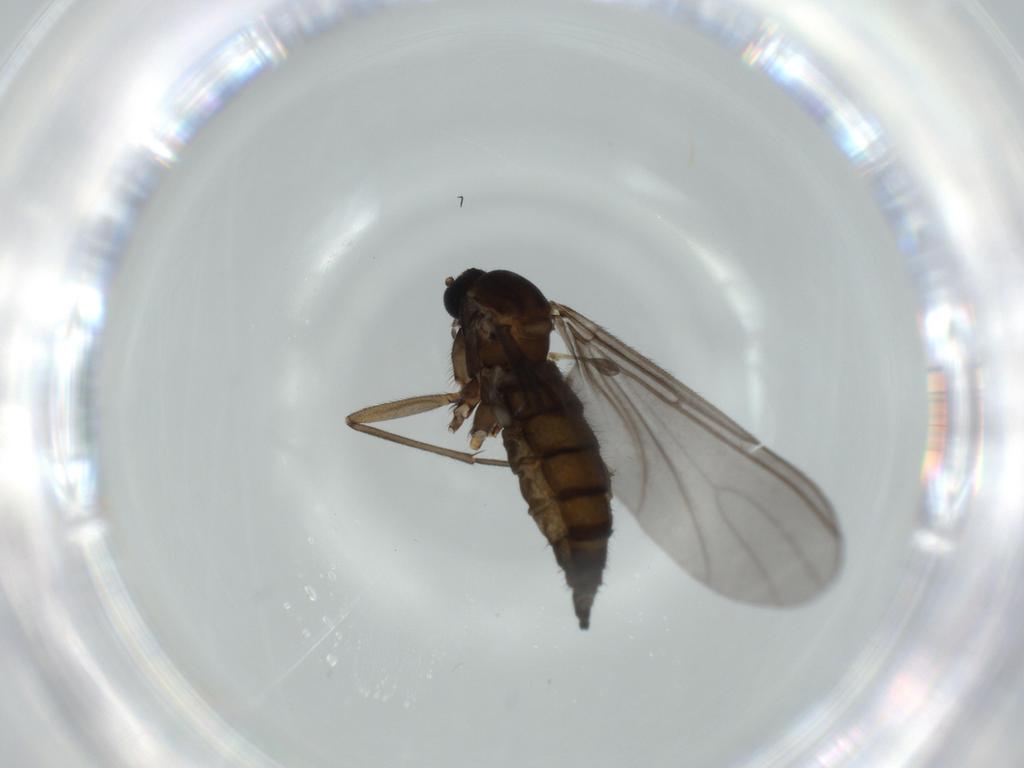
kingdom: Animalia
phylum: Arthropoda
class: Insecta
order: Diptera
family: Sciaridae
